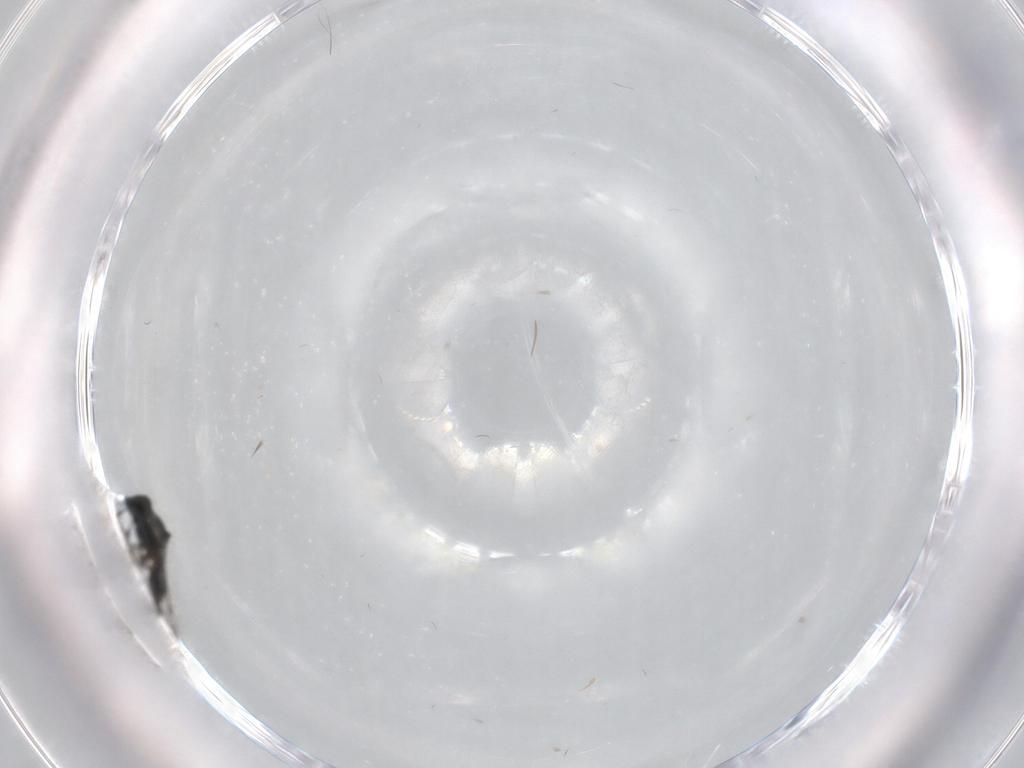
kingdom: Animalia
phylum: Arthropoda
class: Insecta
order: Hymenoptera
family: Platygastridae
